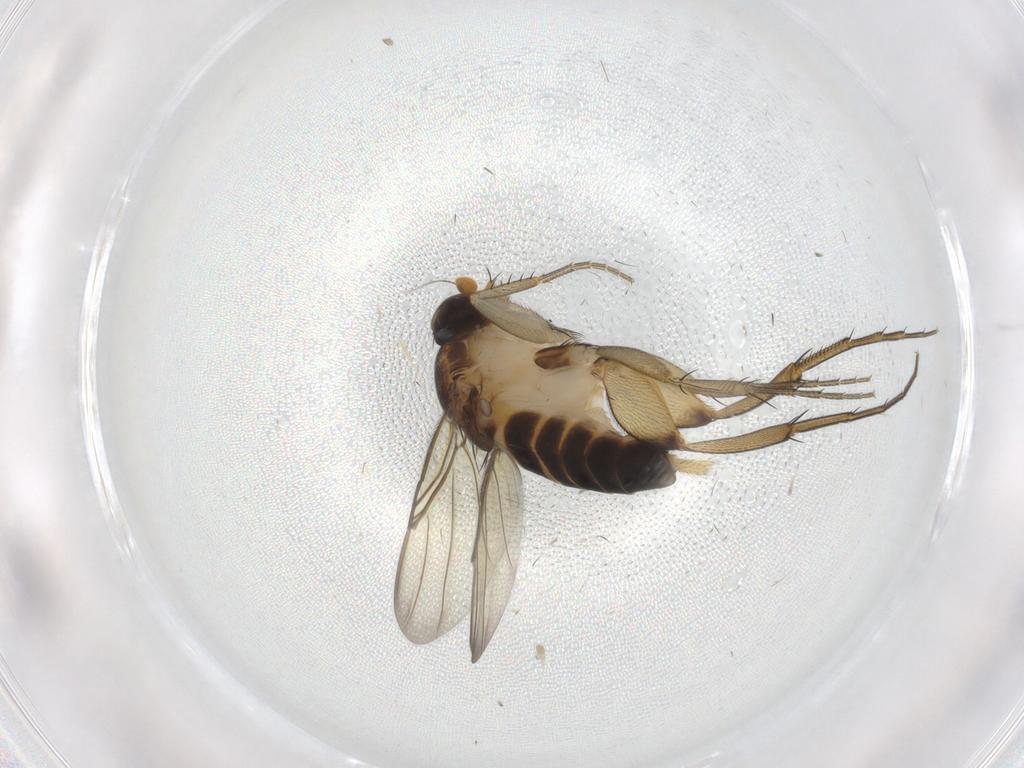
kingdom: Animalia
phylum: Arthropoda
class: Insecta
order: Diptera
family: Phoridae
